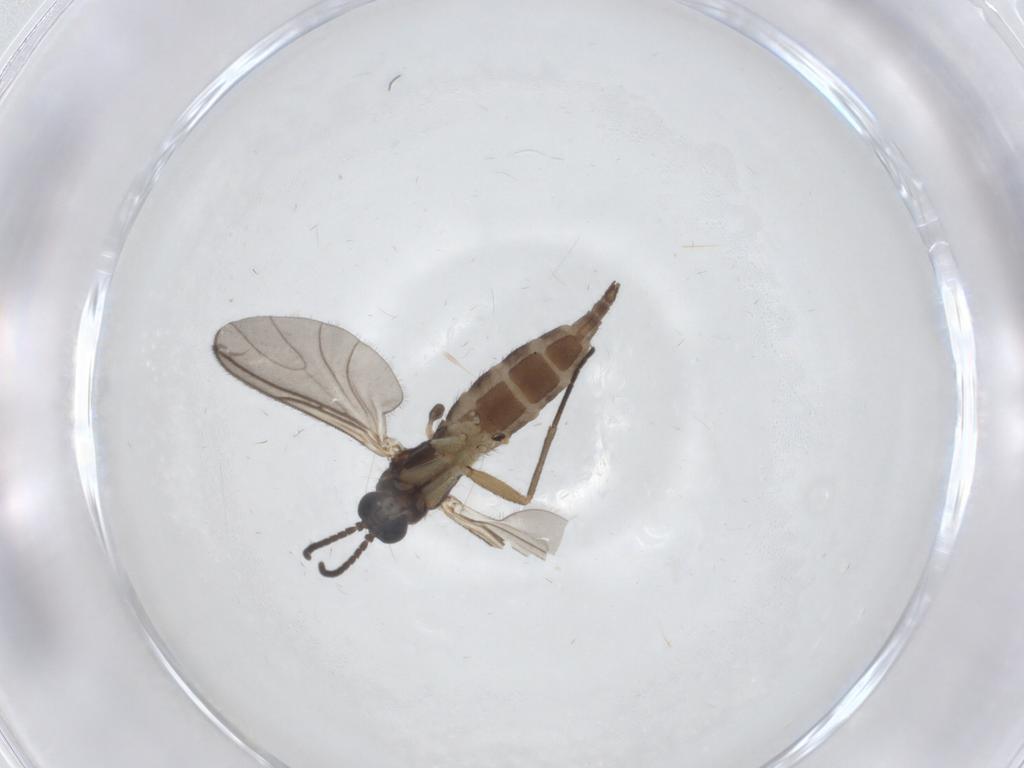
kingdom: Animalia
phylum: Arthropoda
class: Insecta
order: Diptera
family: Sciaridae
